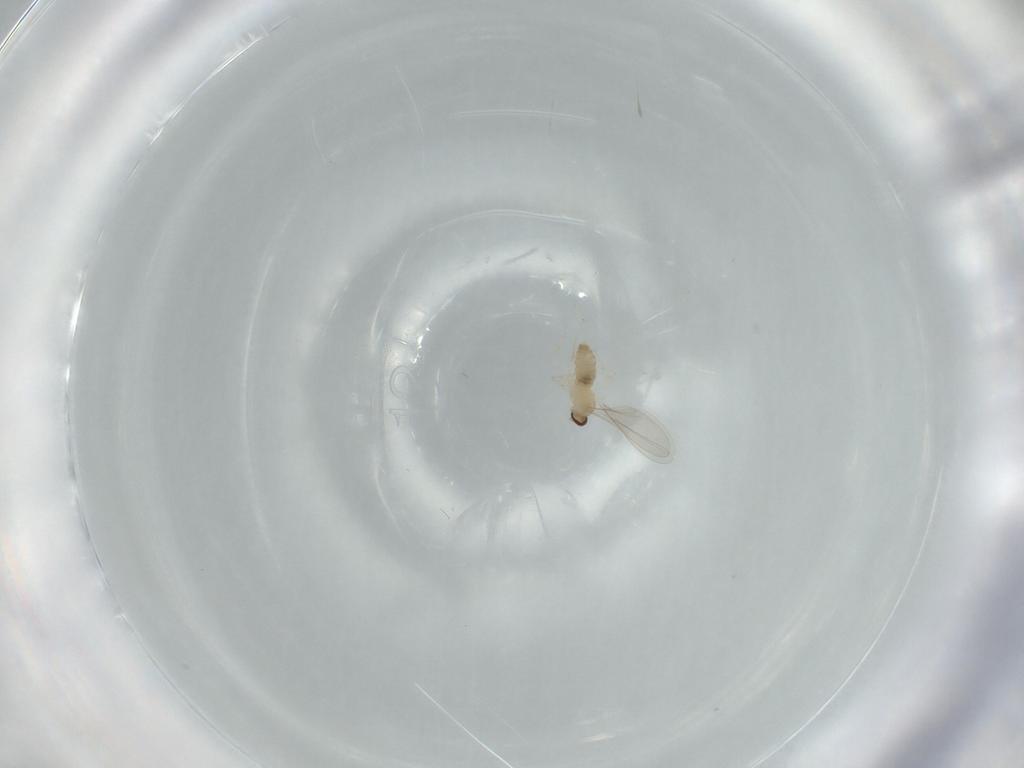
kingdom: Animalia
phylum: Arthropoda
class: Insecta
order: Diptera
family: Cecidomyiidae
